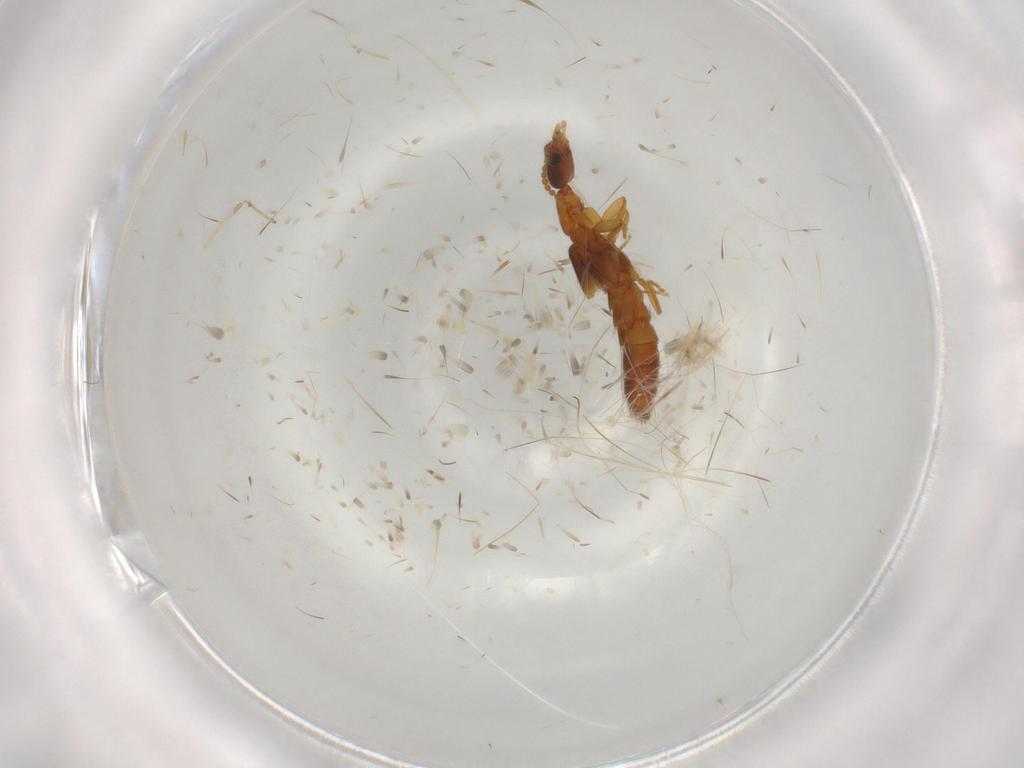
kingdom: Animalia
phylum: Arthropoda
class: Insecta
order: Coleoptera
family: Staphylinidae
